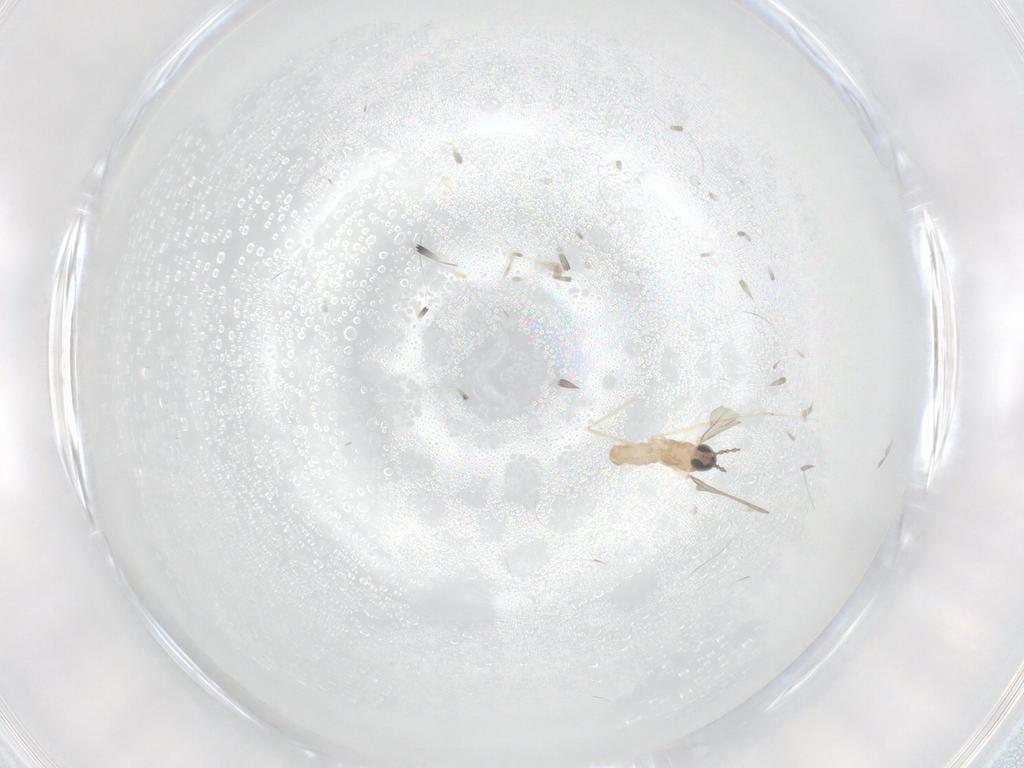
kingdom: Animalia
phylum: Arthropoda
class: Insecta
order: Diptera
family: Cecidomyiidae
